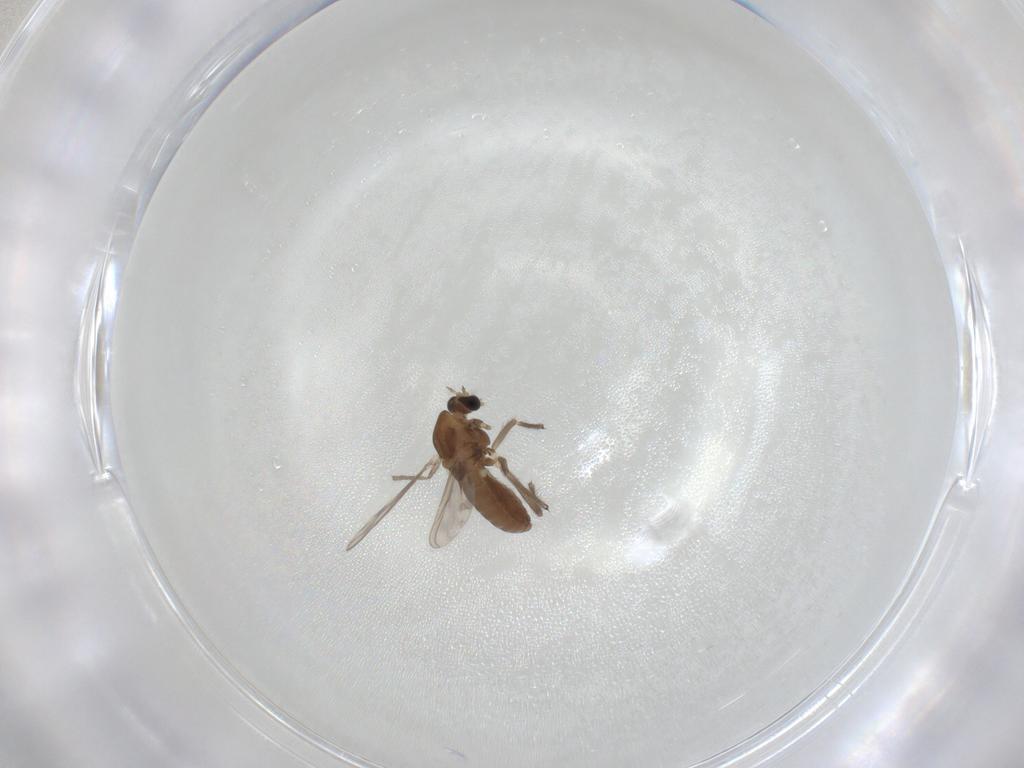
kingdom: Animalia
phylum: Arthropoda
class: Insecta
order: Diptera
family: Chironomidae
